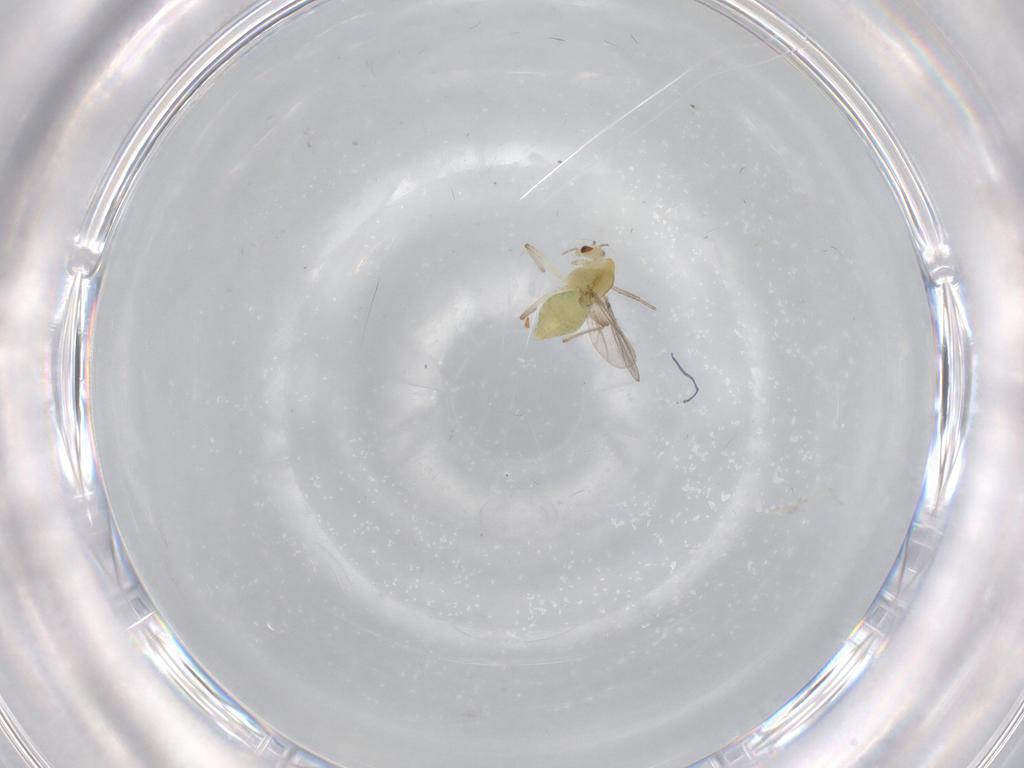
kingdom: Animalia
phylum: Arthropoda
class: Insecta
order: Diptera
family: Chironomidae
